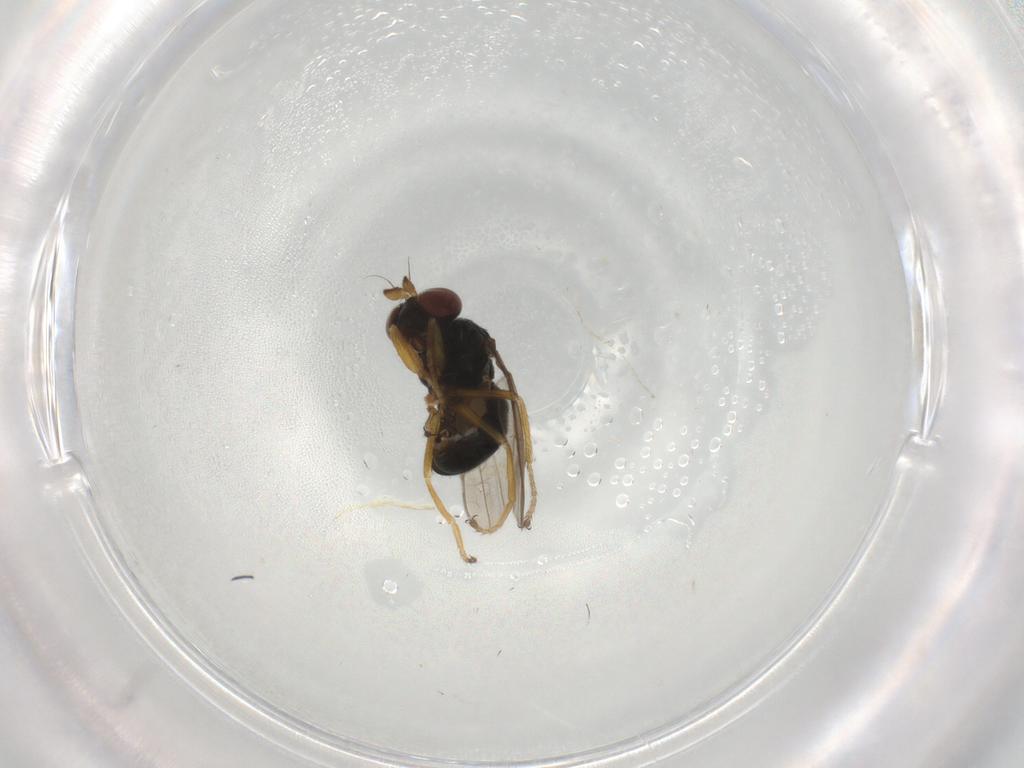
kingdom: Animalia
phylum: Arthropoda
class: Insecta
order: Diptera
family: Ephydridae
